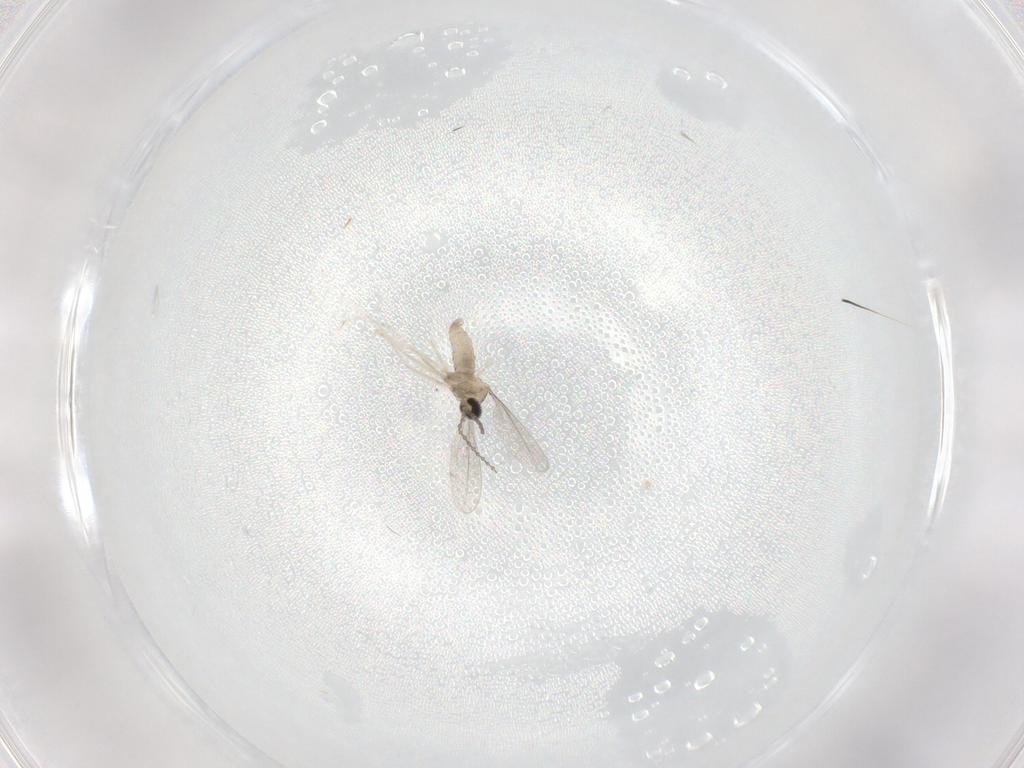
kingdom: Animalia
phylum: Arthropoda
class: Insecta
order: Diptera
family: Cecidomyiidae
